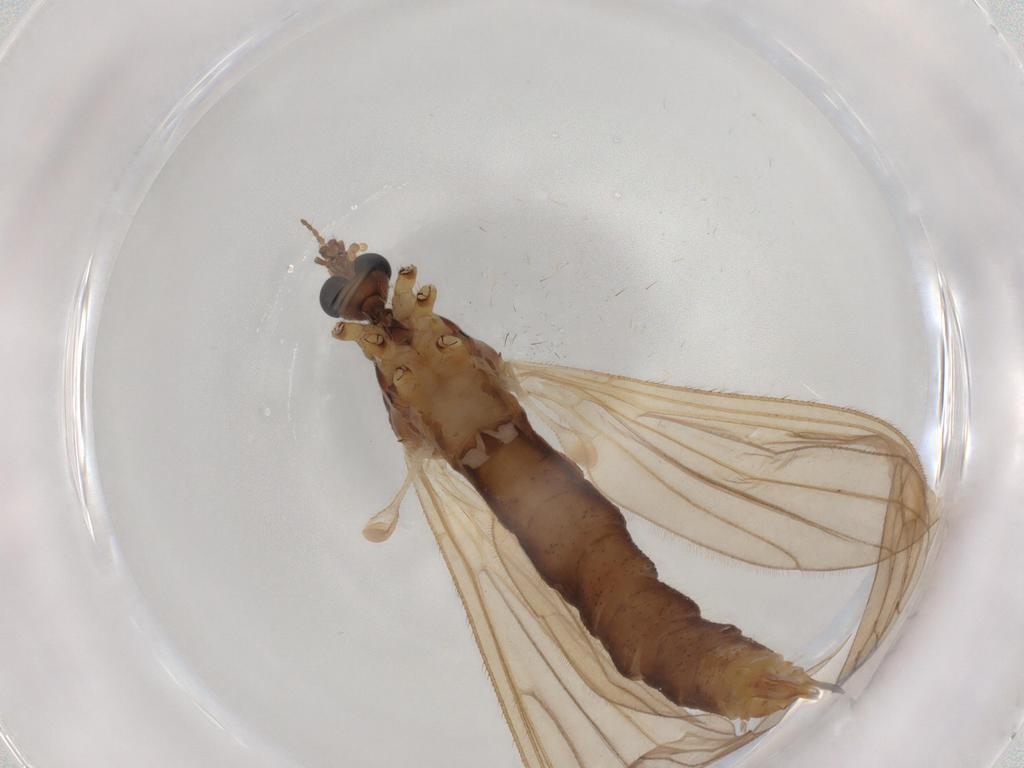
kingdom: Animalia
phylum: Arthropoda
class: Insecta
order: Diptera
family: Limoniidae
